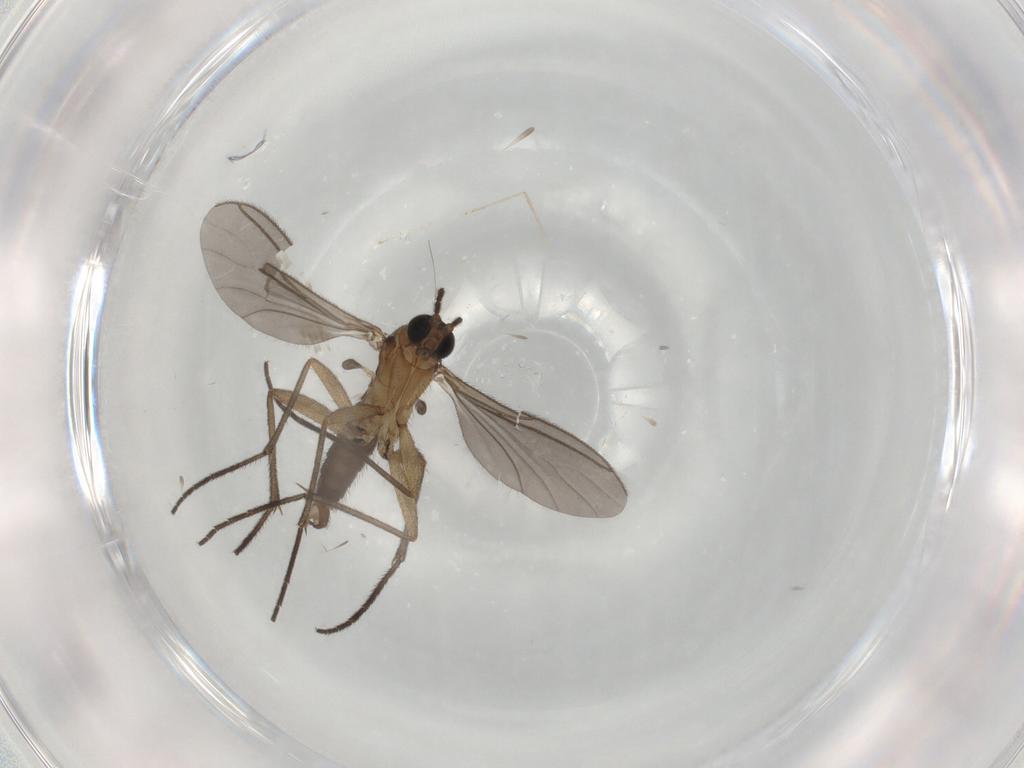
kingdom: Animalia
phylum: Arthropoda
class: Insecta
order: Diptera
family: Sciaridae
